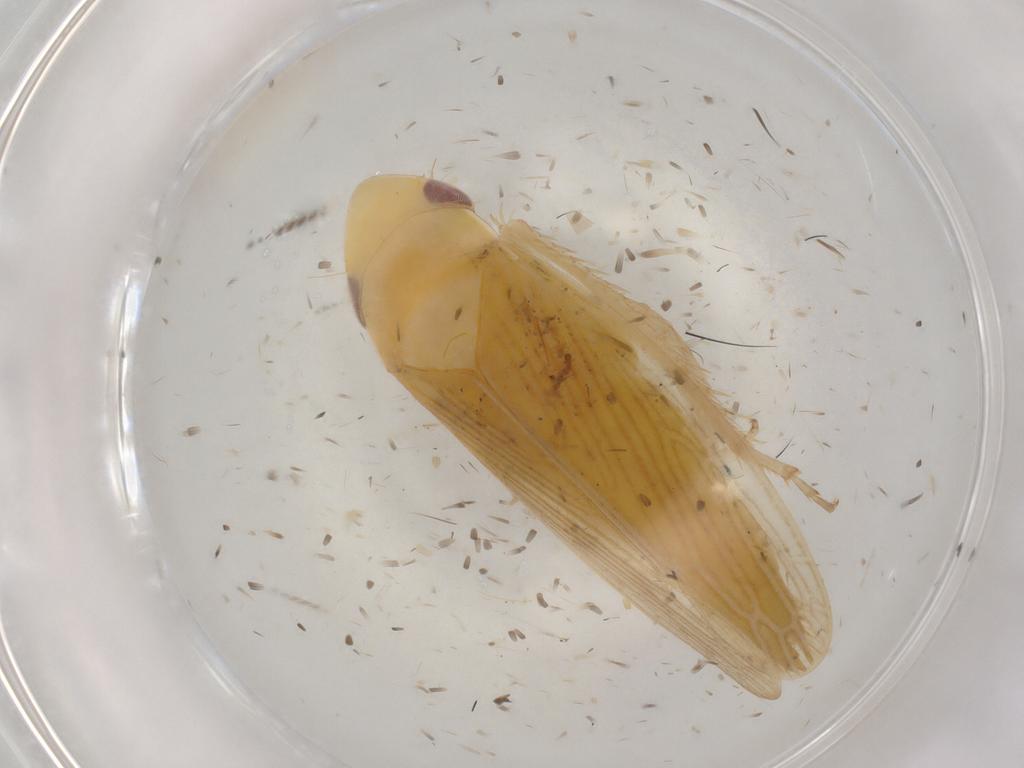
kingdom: Animalia
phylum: Arthropoda
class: Insecta
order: Hemiptera
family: Cicadellidae
